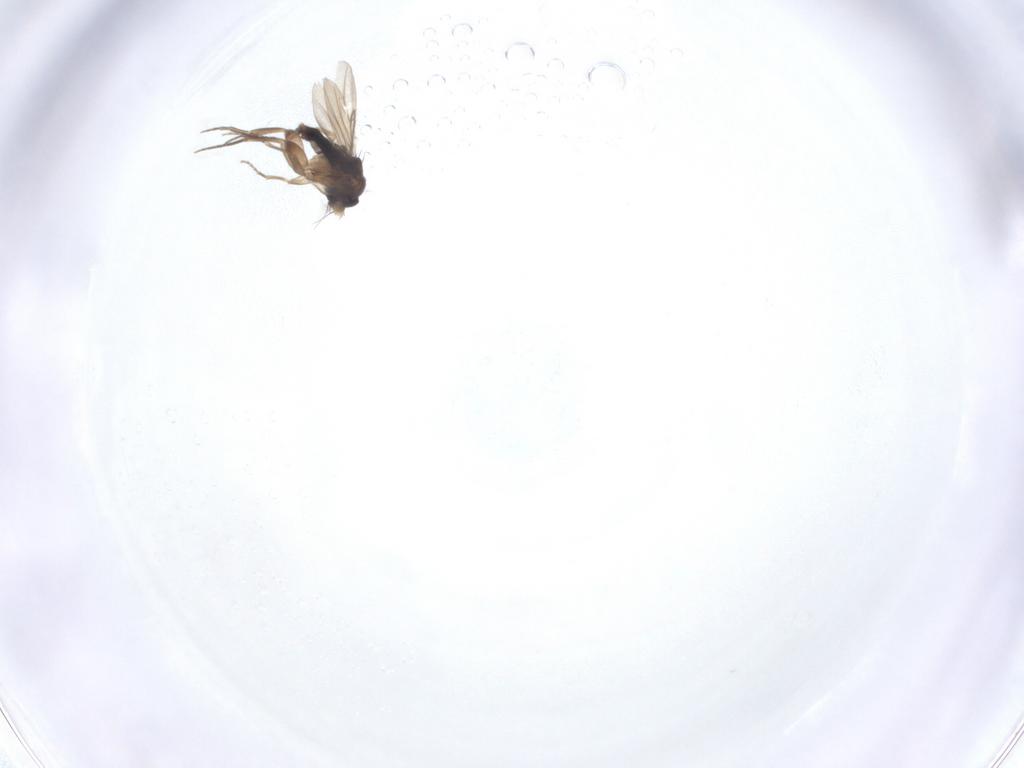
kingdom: Animalia
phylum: Arthropoda
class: Insecta
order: Diptera
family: Phoridae
